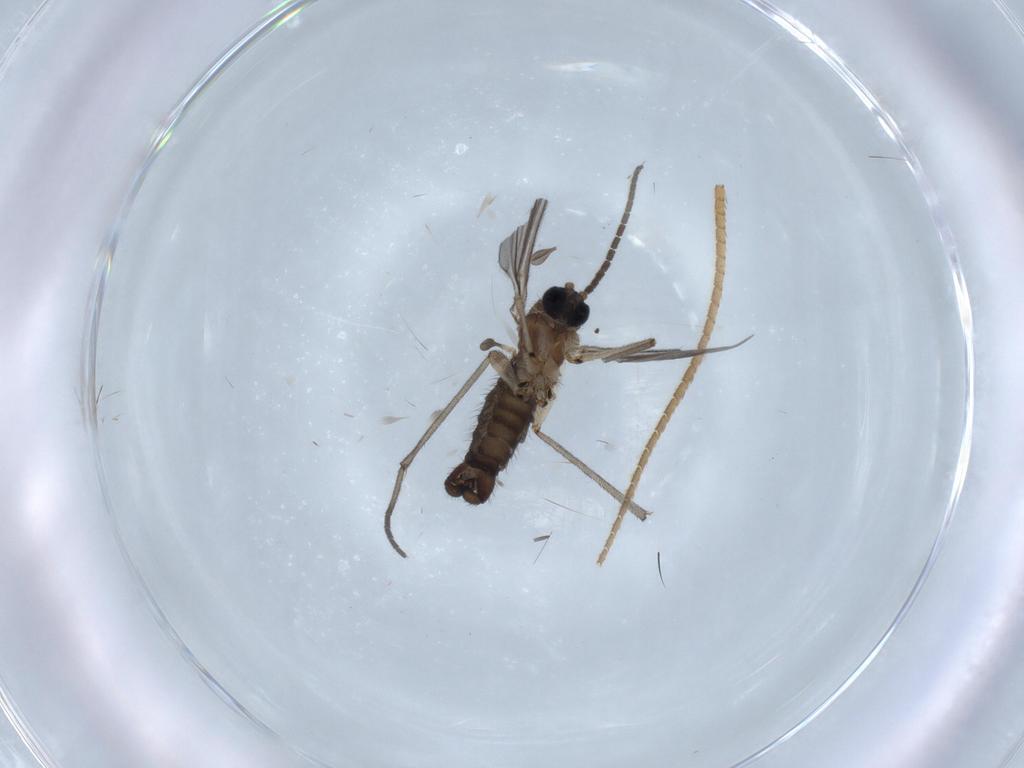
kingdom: Animalia
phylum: Arthropoda
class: Insecta
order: Diptera
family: Sciaridae
